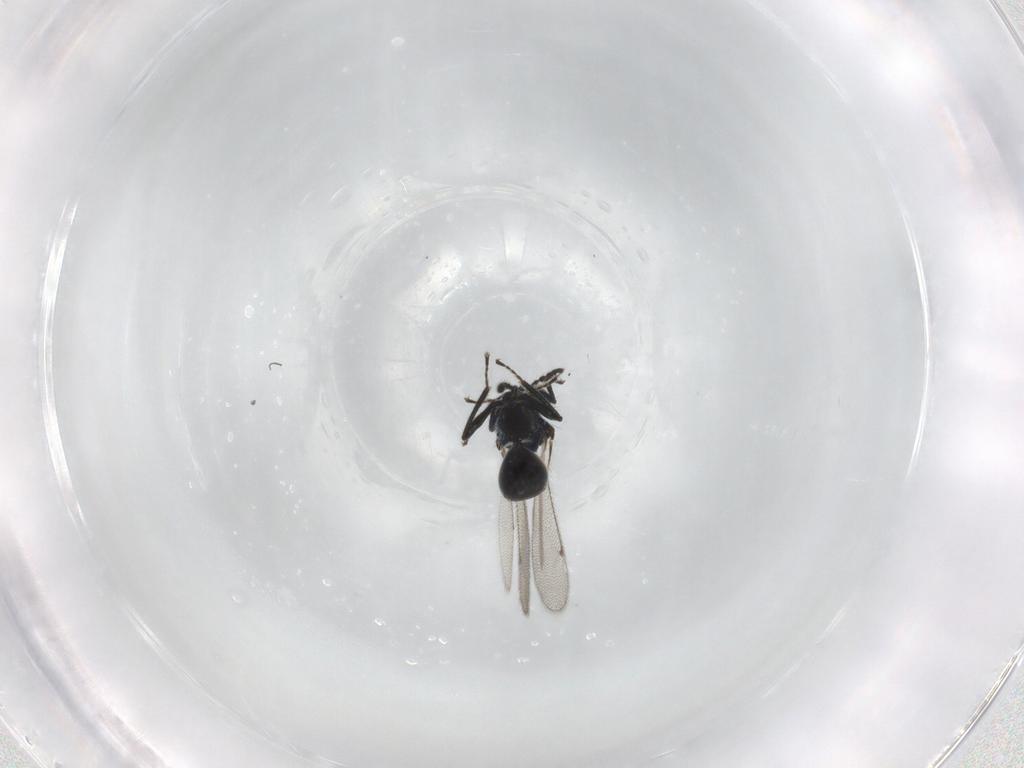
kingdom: Animalia
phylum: Arthropoda
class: Insecta
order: Hymenoptera
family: Eulophidae
